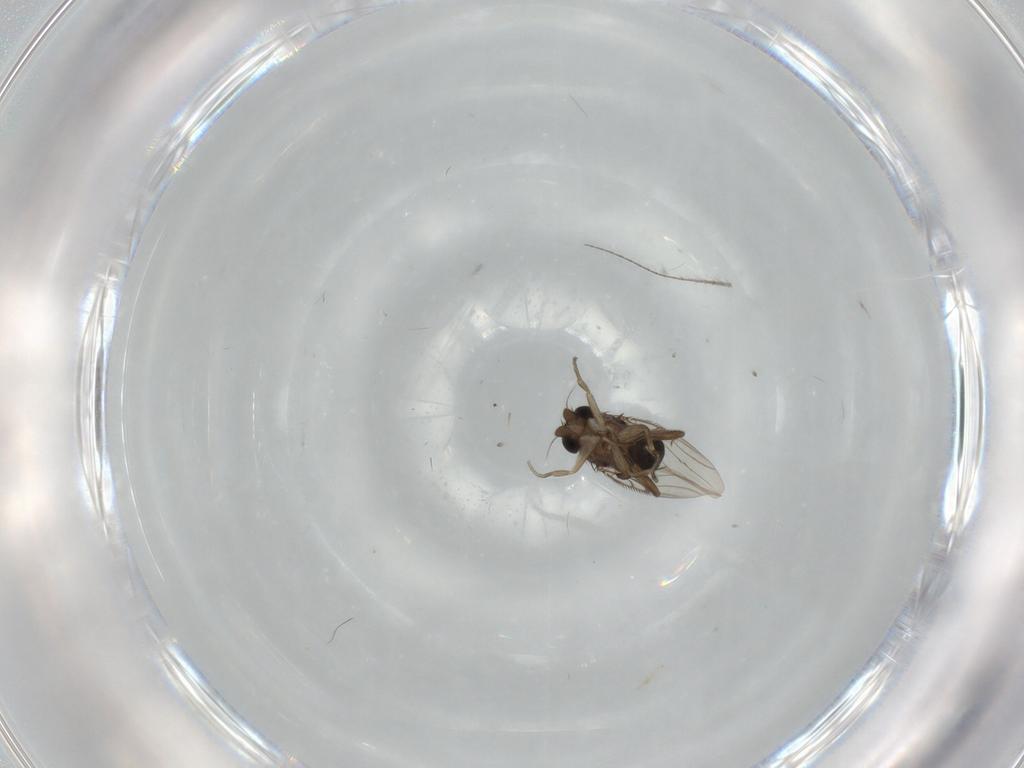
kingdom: Animalia
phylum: Arthropoda
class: Insecta
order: Diptera
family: Phoridae
